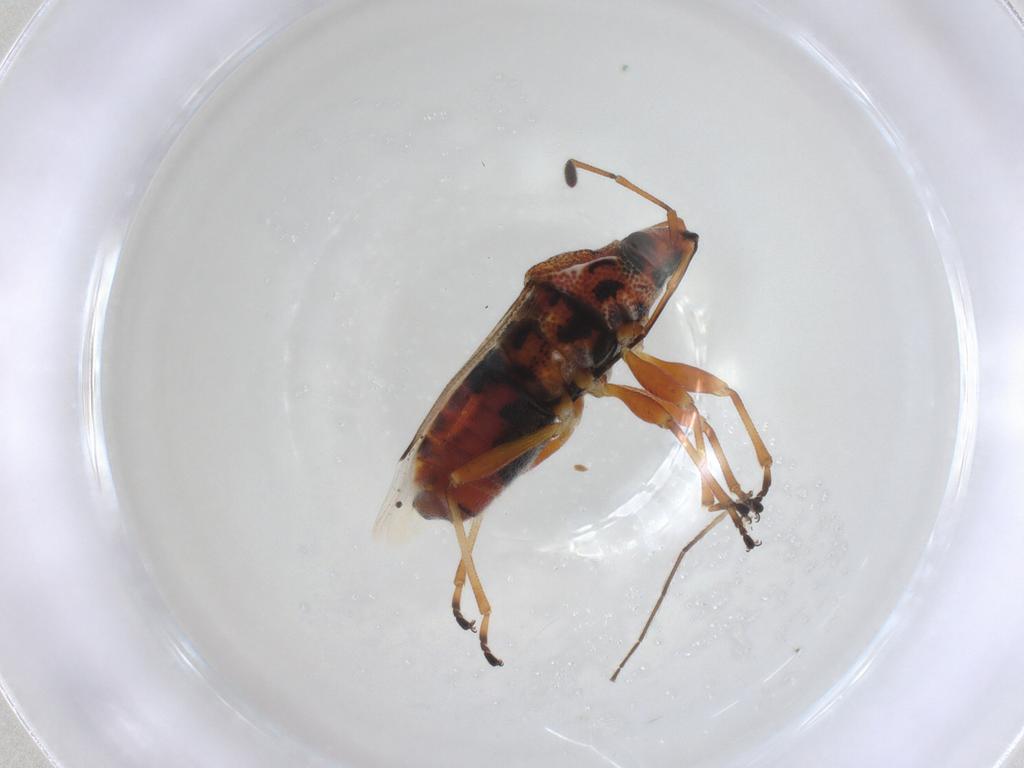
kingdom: Animalia
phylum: Arthropoda
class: Insecta
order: Hemiptera
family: Lygaeidae
